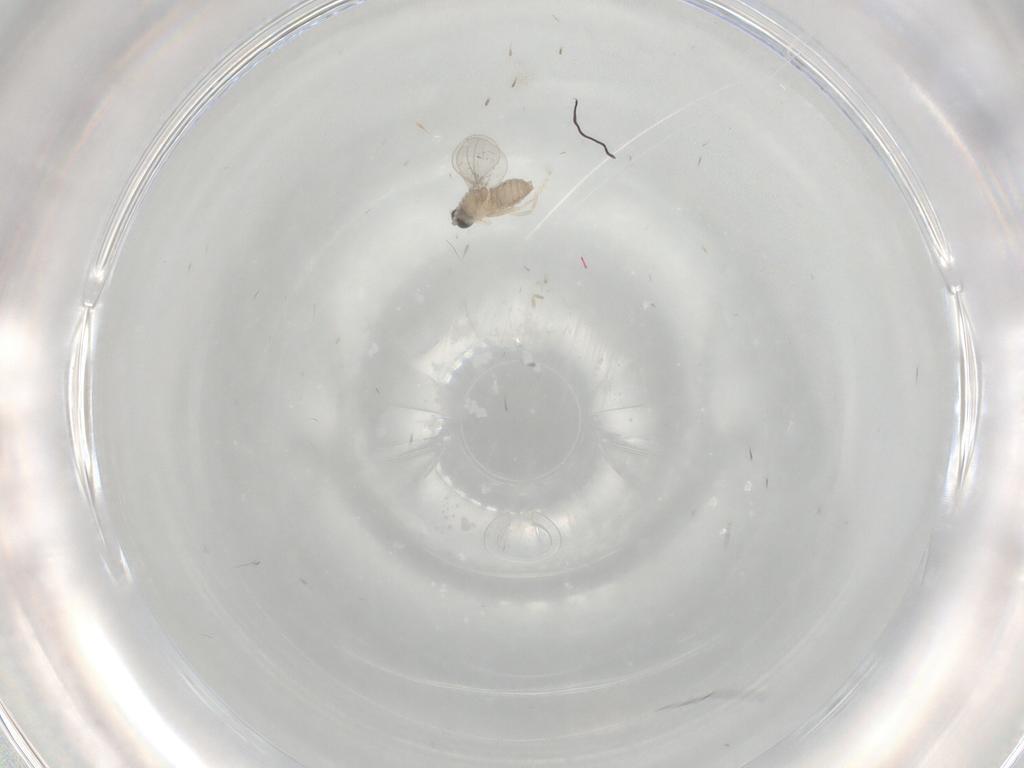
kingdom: Animalia
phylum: Arthropoda
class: Insecta
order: Diptera
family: Cecidomyiidae
